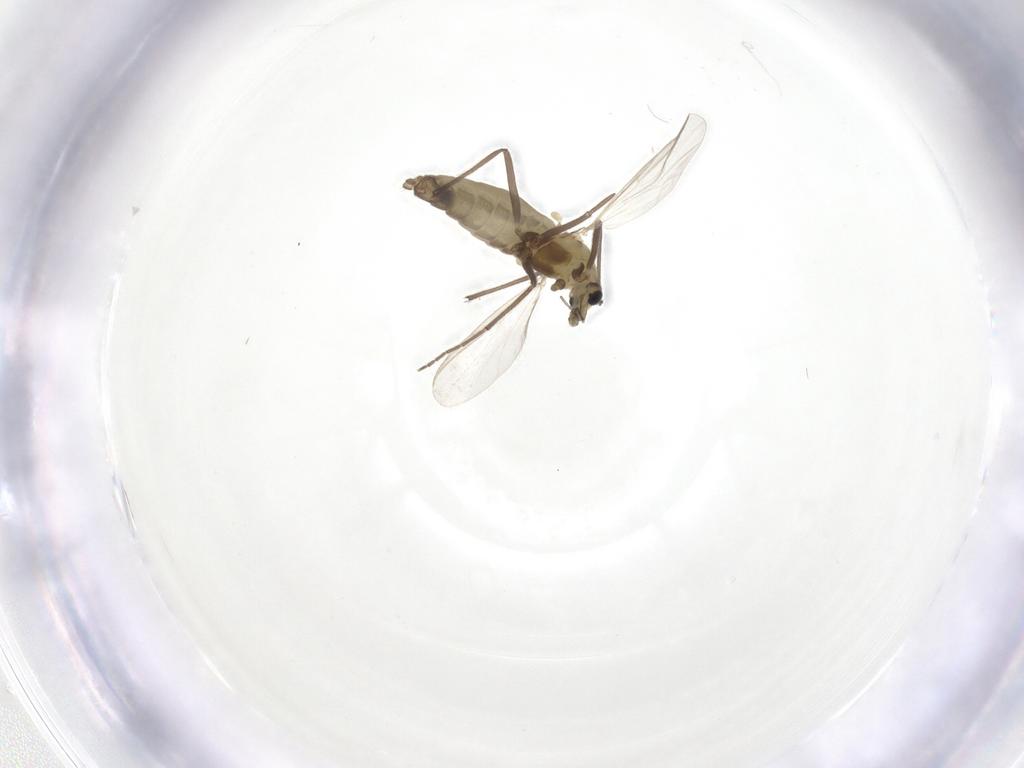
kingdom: Animalia
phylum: Arthropoda
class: Insecta
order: Diptera
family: Chironomidae
